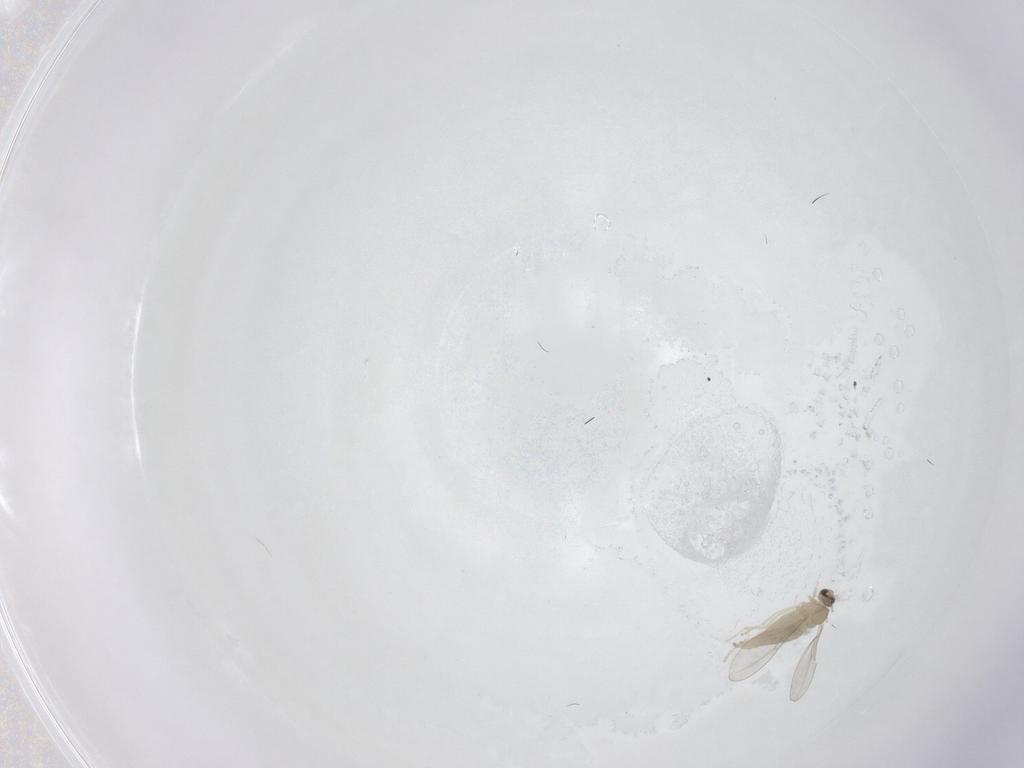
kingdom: Animalia
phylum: Arthropoda
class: Insecta
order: Diptera
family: Cecidomyiidae
